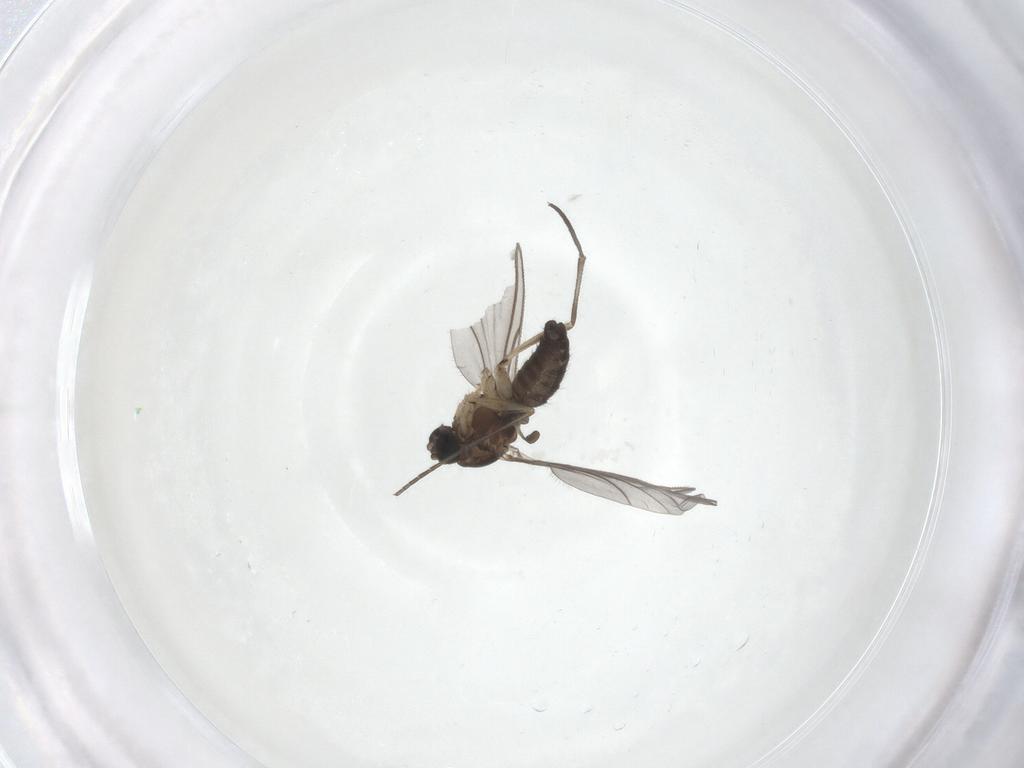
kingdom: Animalia
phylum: Arthropoda
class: Insecta
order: Diptera
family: Sciaridae
